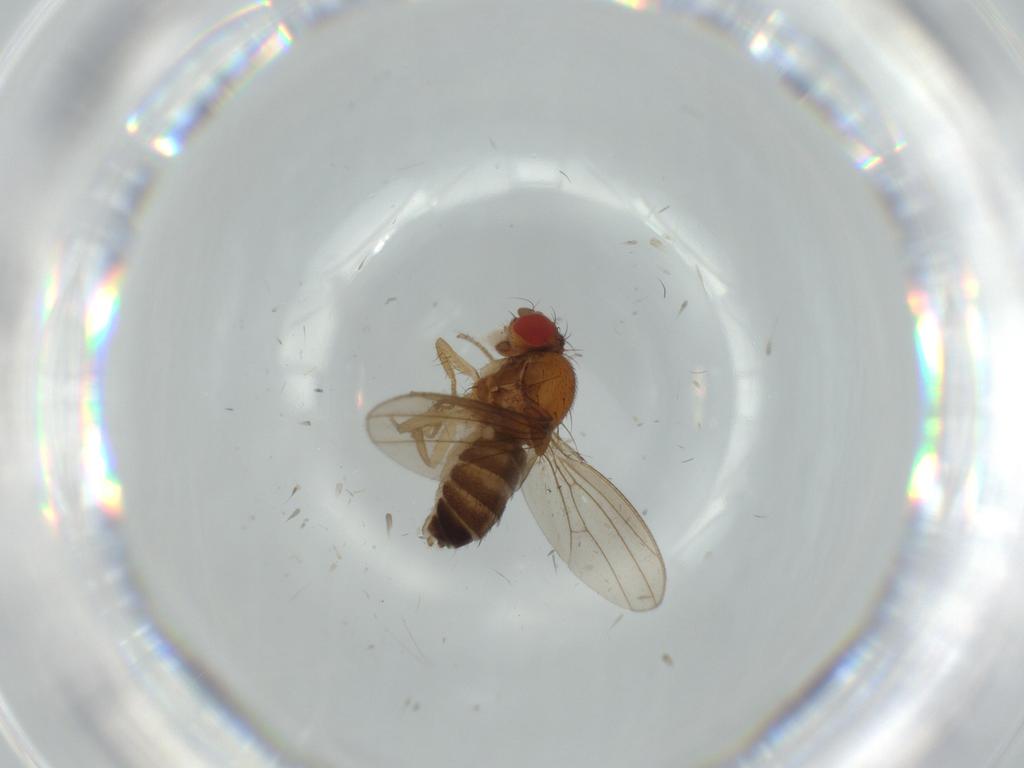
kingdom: Animalia
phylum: Arthropoda
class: Insecta
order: Diptera
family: Drosophilidae
